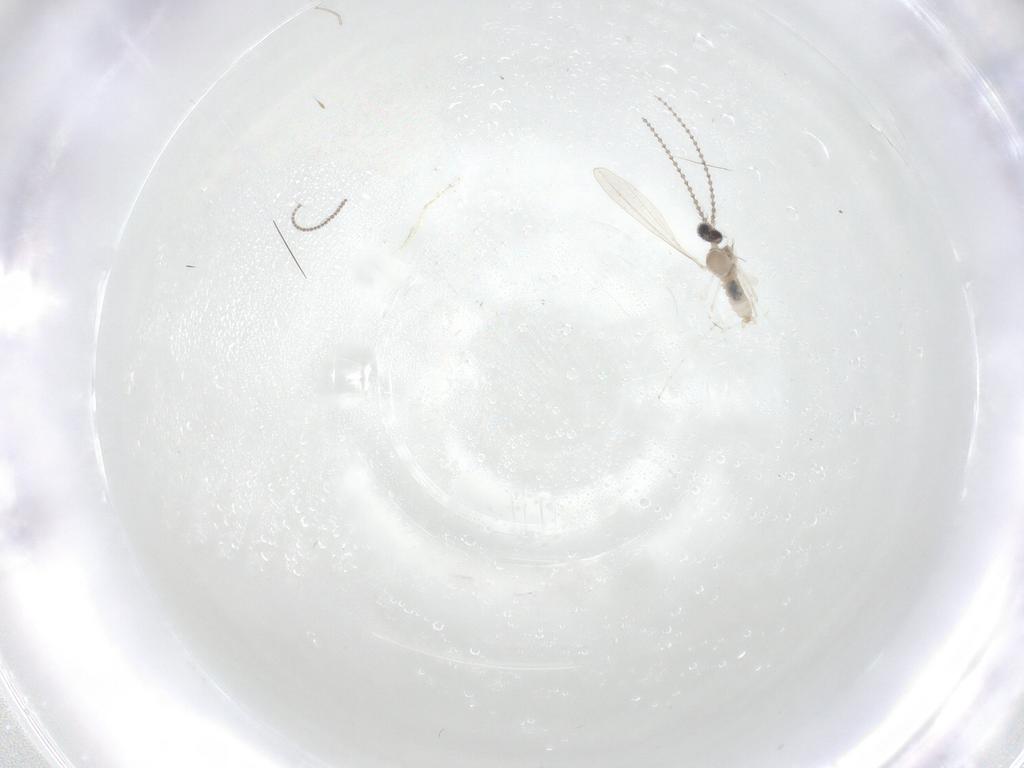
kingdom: Animalia
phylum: Arthropoda
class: Insecta
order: Diptera
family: Cecidomyiidae
